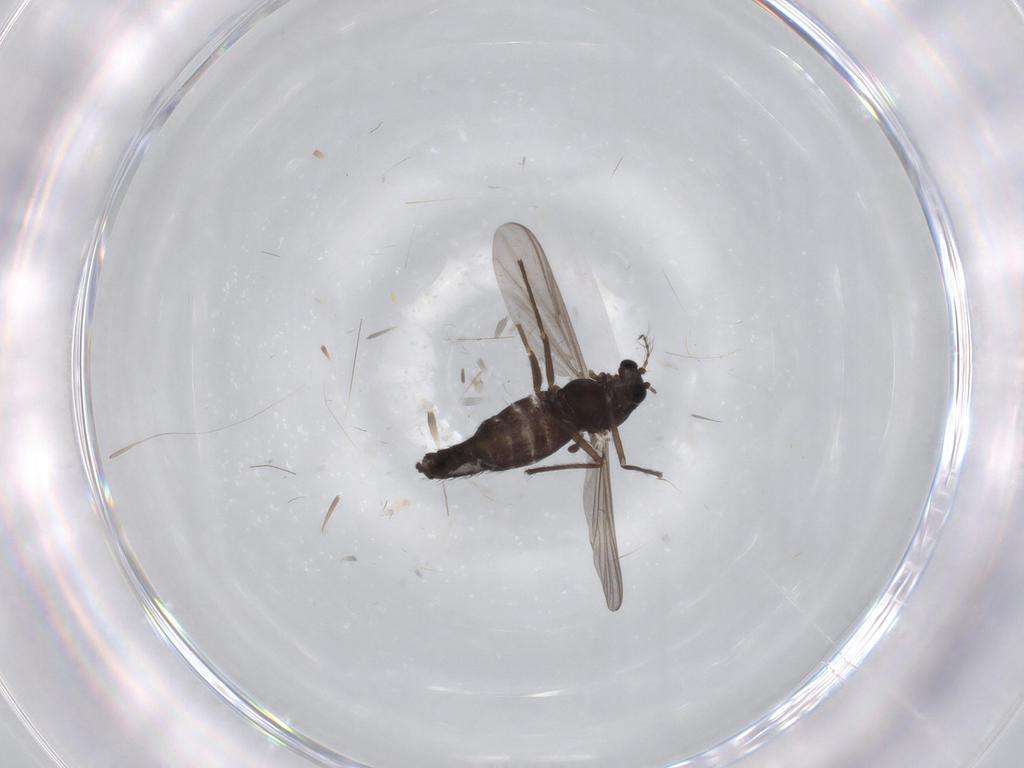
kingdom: Animalia
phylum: Arthropoda
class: Insecta
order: Diptera
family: Chironomidae
